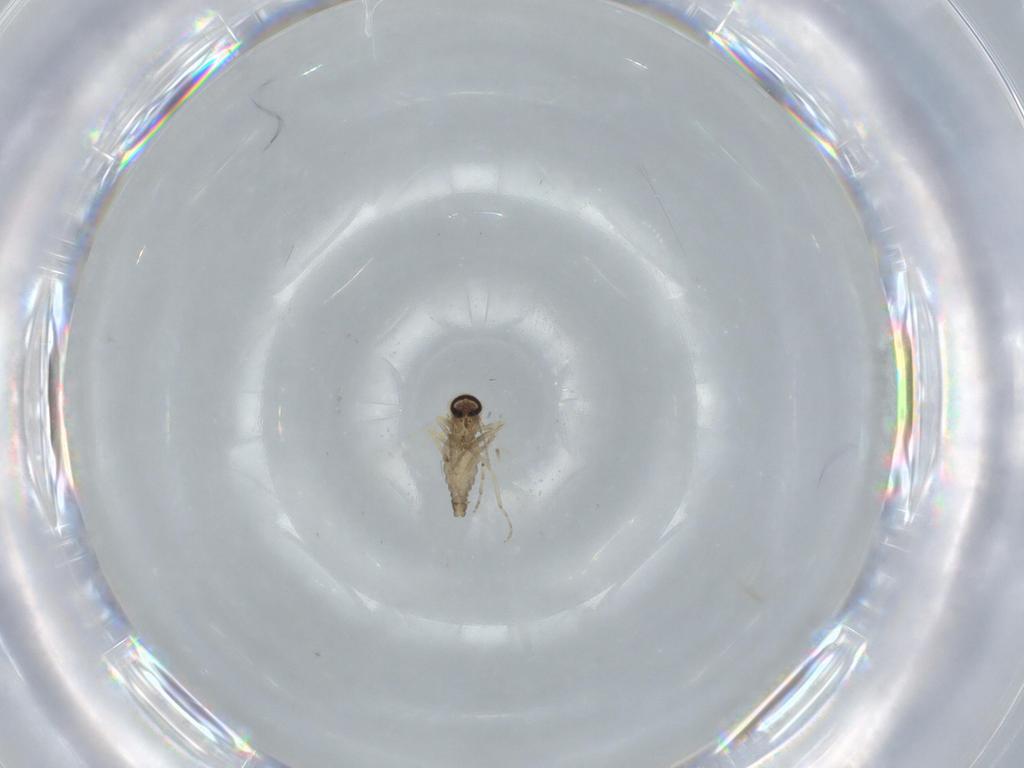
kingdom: Animalia
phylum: Arthropoda
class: Insecta
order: Diptera
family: Ceratopogonidae
